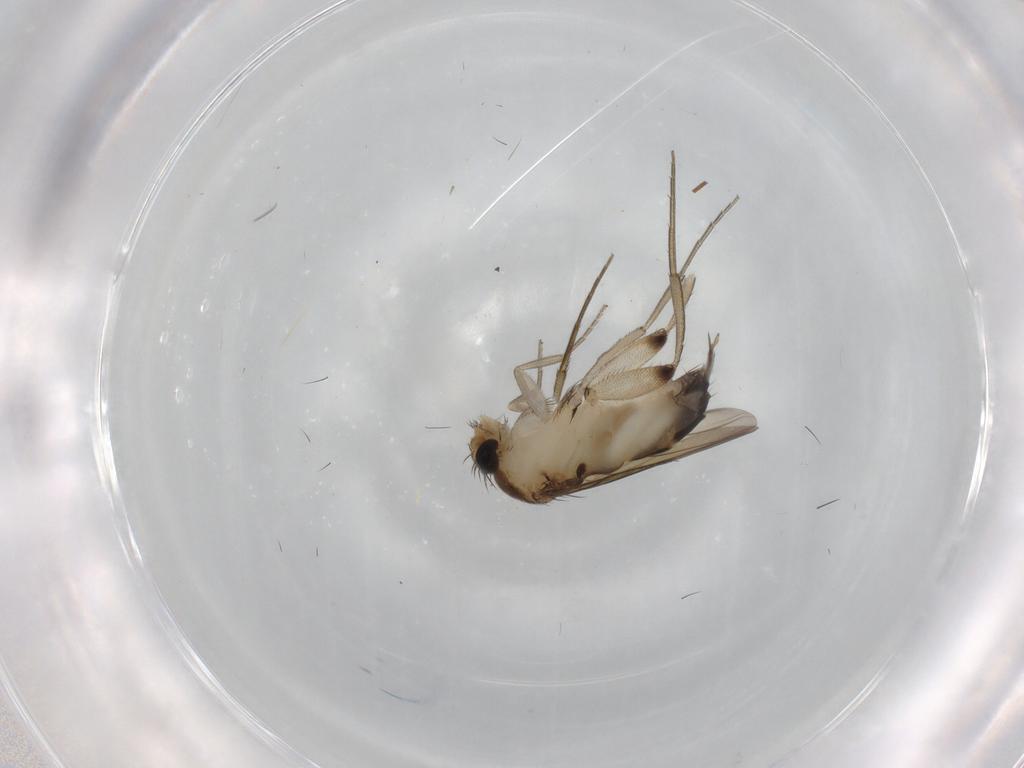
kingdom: Animalia
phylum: Arthropoda
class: Insecta
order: Diptera
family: Phoridae
